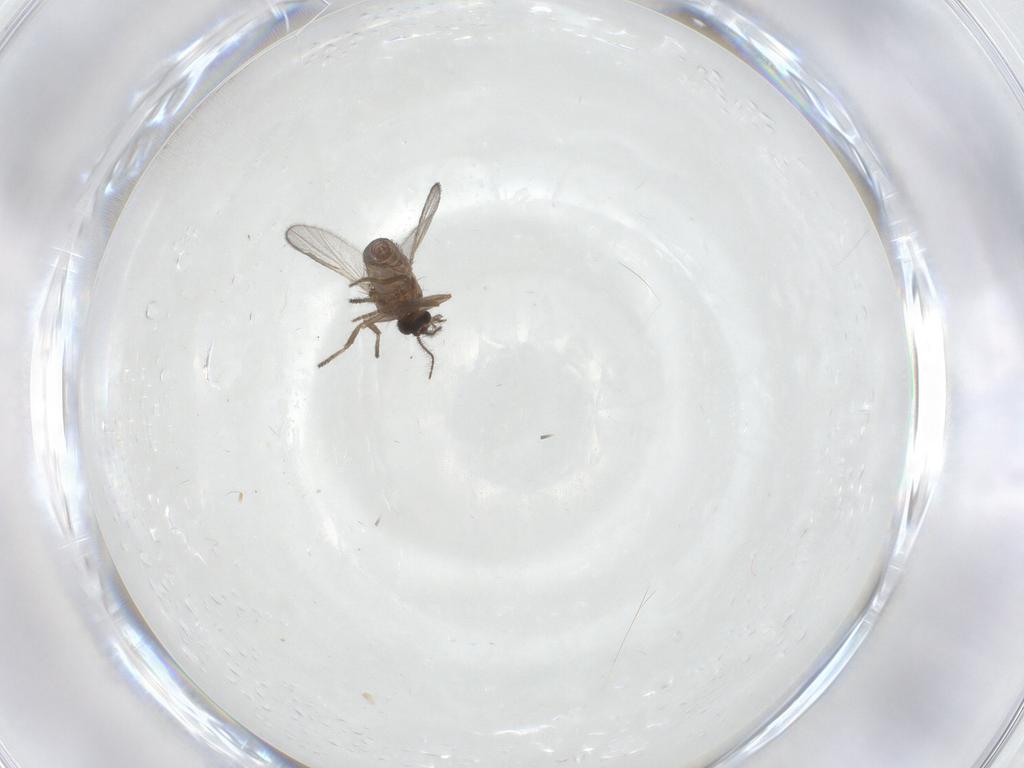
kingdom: Animalia
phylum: Arthropoda
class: Insecta
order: Diptera
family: Ceratopogonidae
